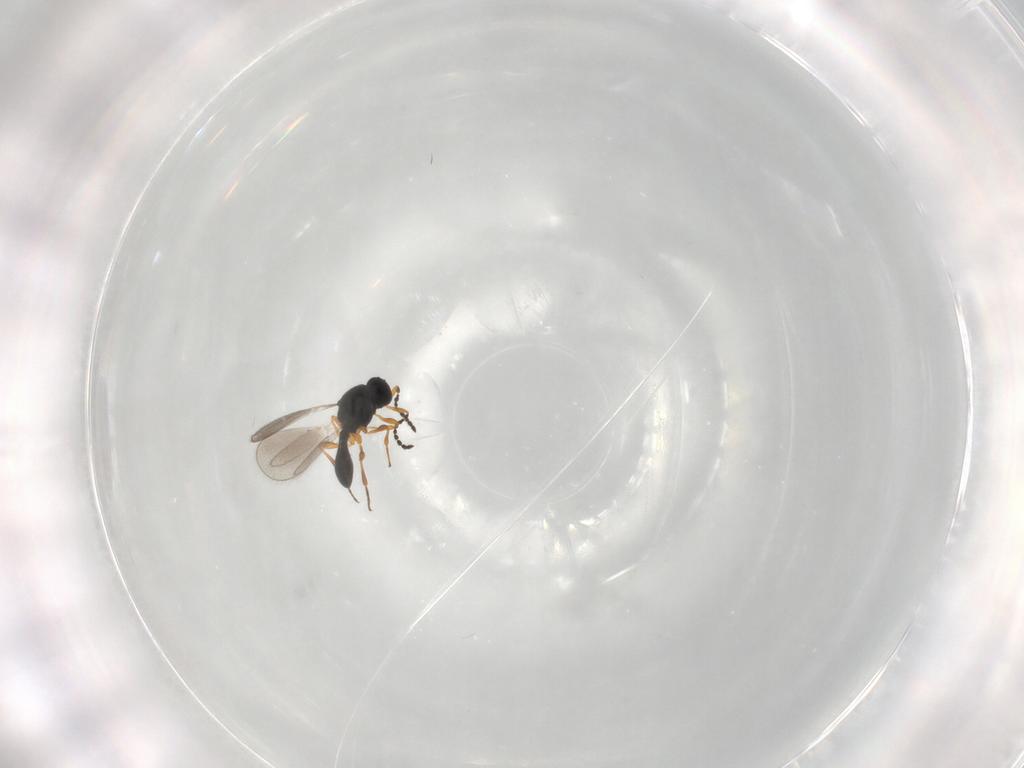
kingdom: Animalia
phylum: Arthropoda
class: Insecta
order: Hymenoptera
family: Platygastridae
